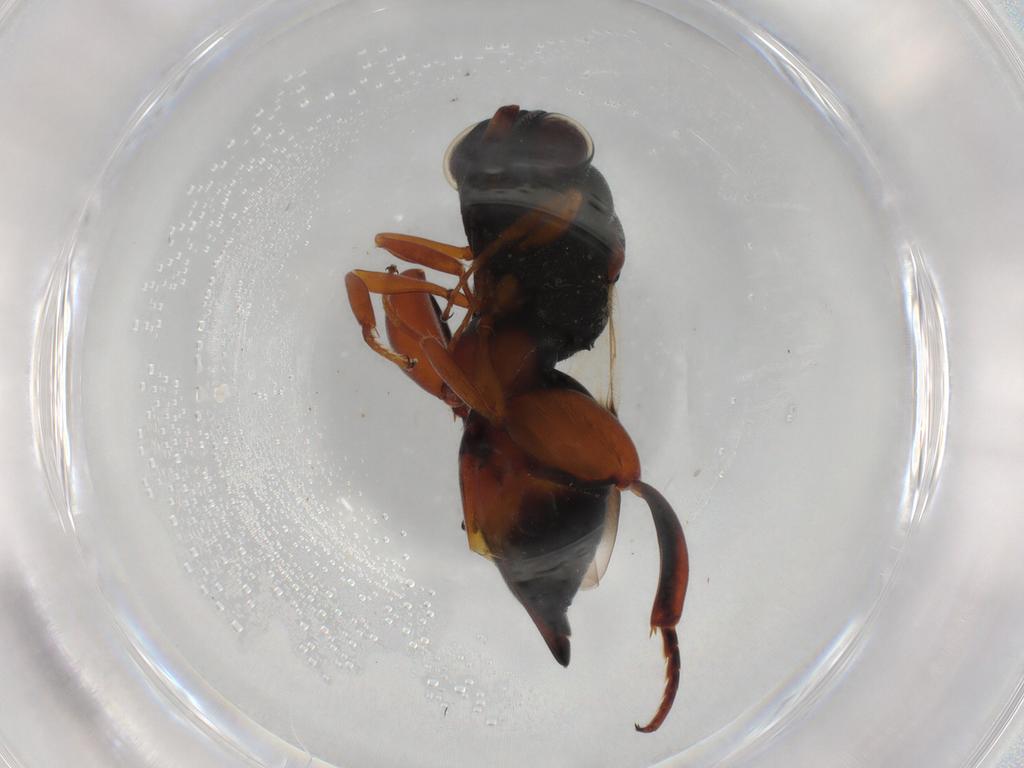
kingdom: Animalia
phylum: Arthropoda
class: Insecta
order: Hymenoptera
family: Vespidae
